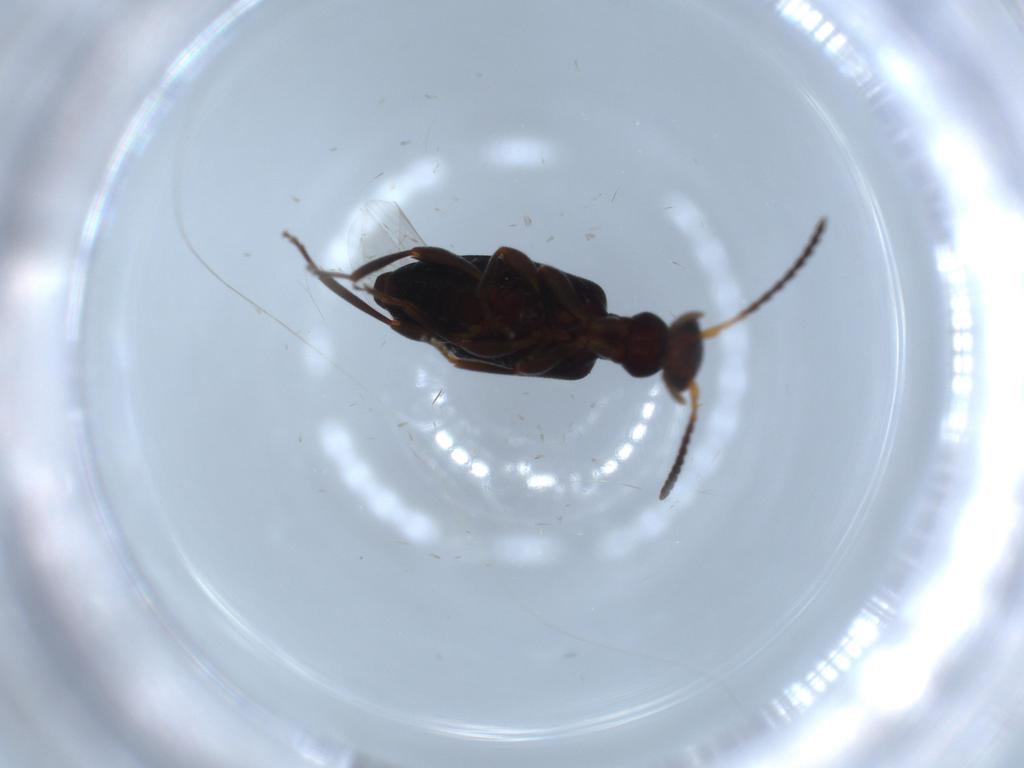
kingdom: Animalia
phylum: Arthropoda
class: Insecta
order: Coleoptera
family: Anthicidae
